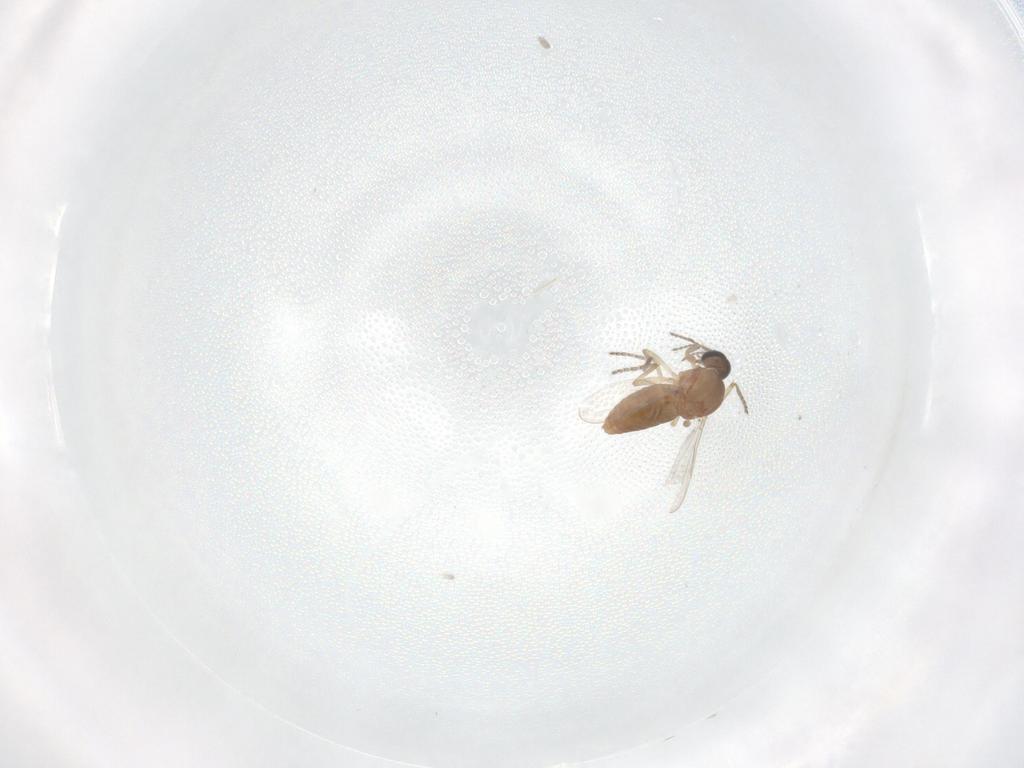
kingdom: Animalia
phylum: Arthropoda
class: Insecta
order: Diptera
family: Ceratopogonidae
